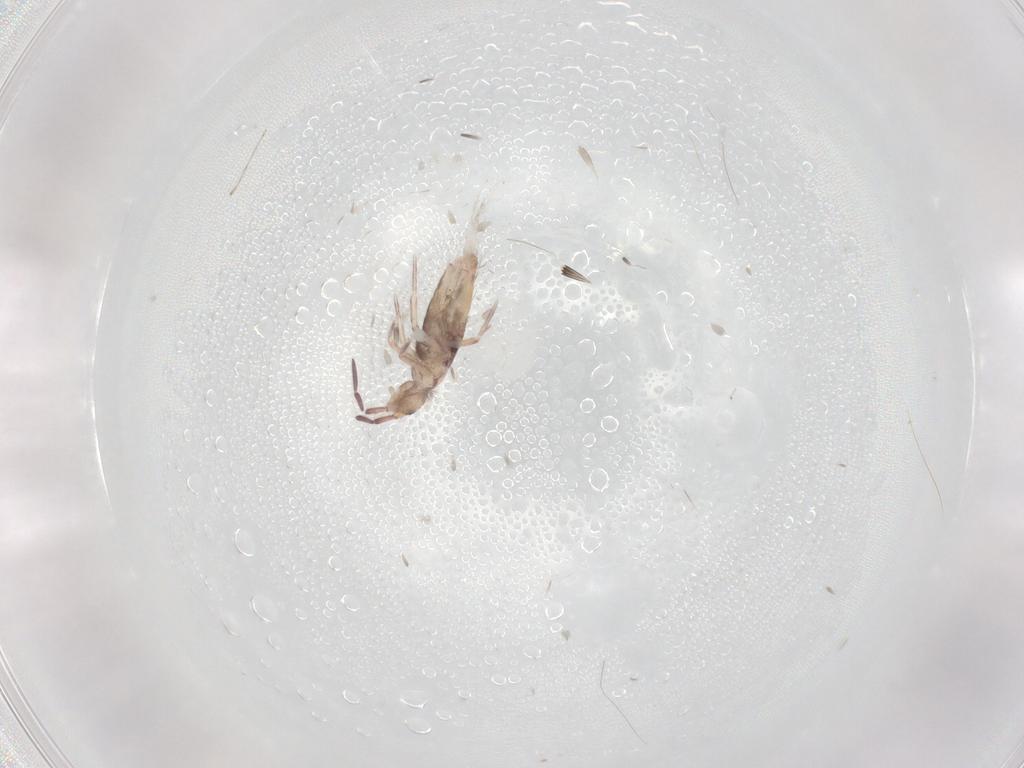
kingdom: Animalia
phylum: Arthropoda
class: Collembola
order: Entomobryomorpha
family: Entomobryidae
